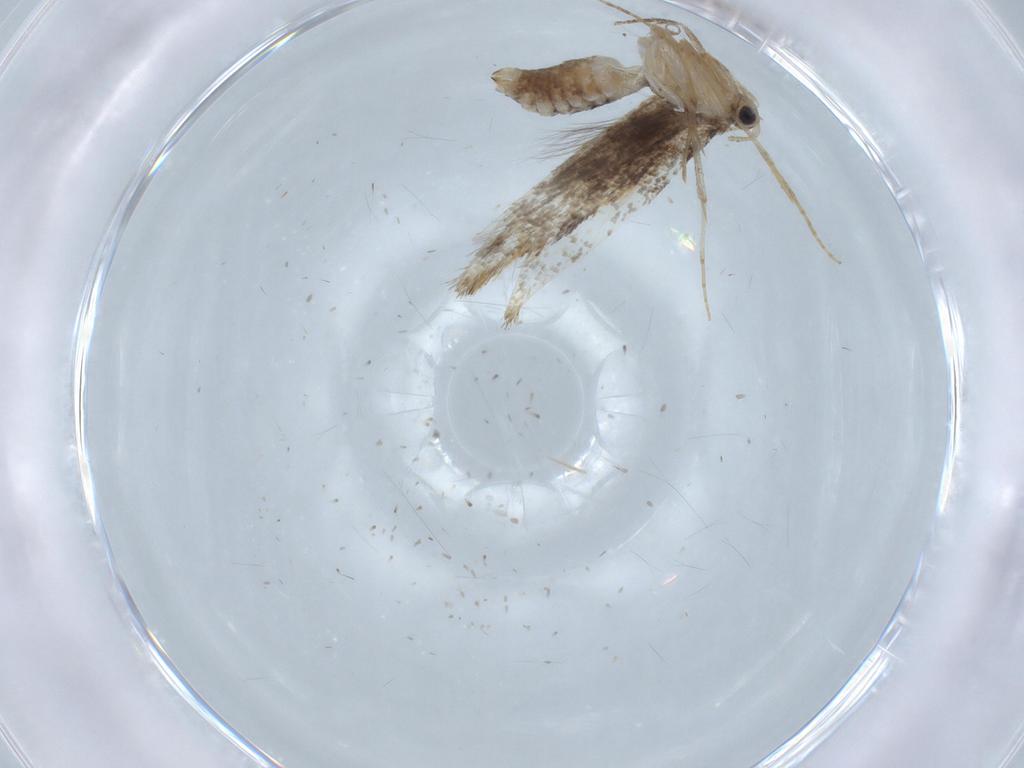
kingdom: Animalia
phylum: Arthropoda
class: Insecta
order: Lepidoptera
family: Tineidae
